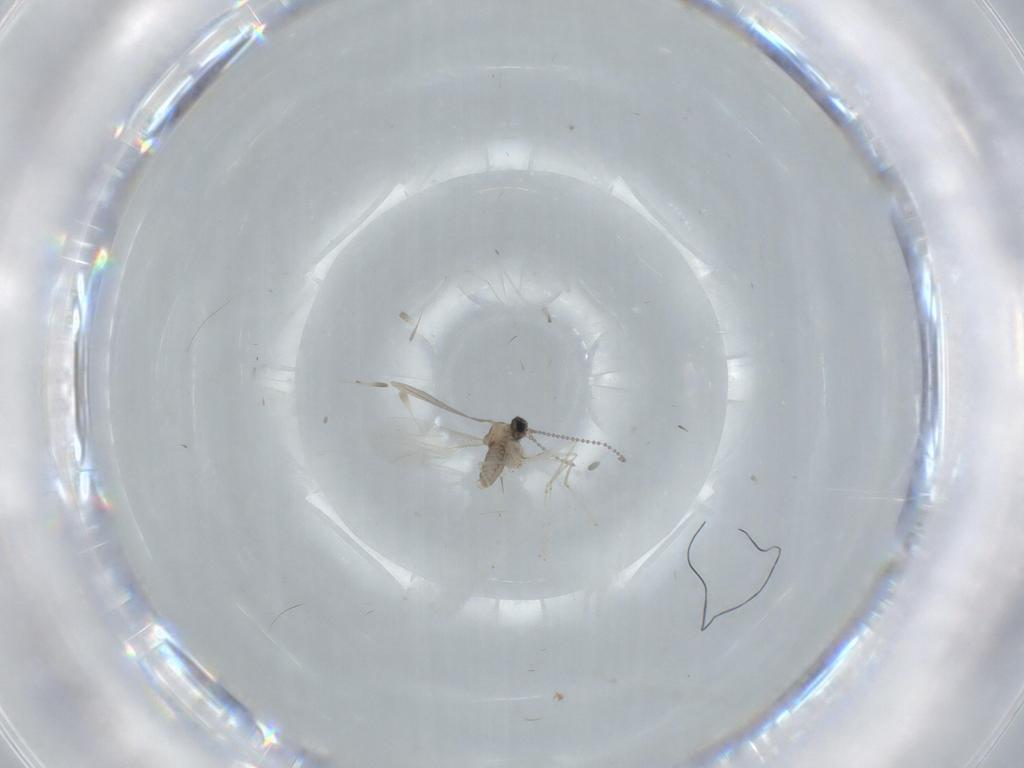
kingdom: Animalia
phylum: Arthropoda
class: Insecta
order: Diptera
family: Cecidomyiidae
